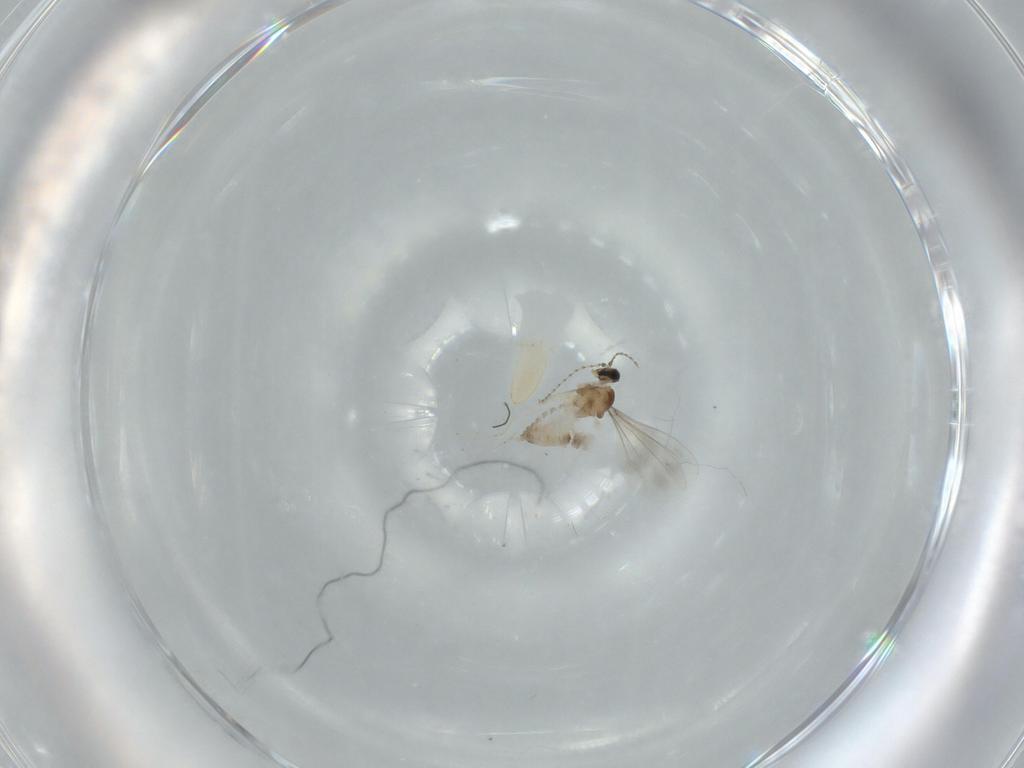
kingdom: Animalia
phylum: Arthropoda
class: Insecta
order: Diptera
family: Cecidomyiidae
